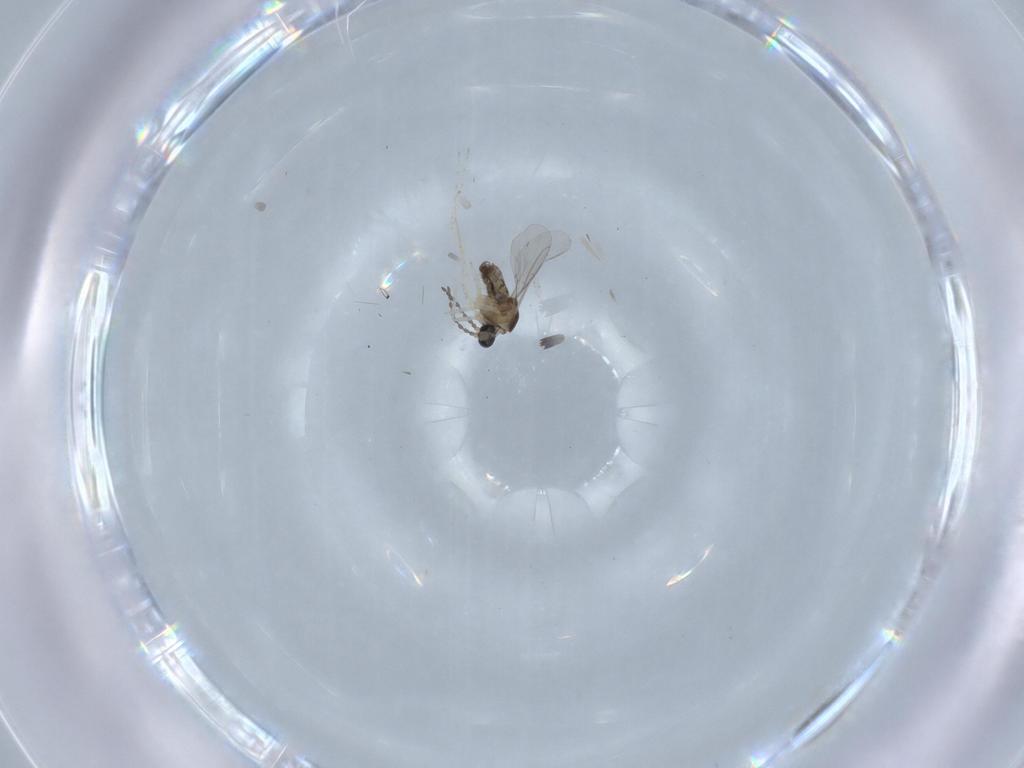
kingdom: Animalia
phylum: Arthropoda
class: Insecta
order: Diptera
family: Cecidomyiidae
